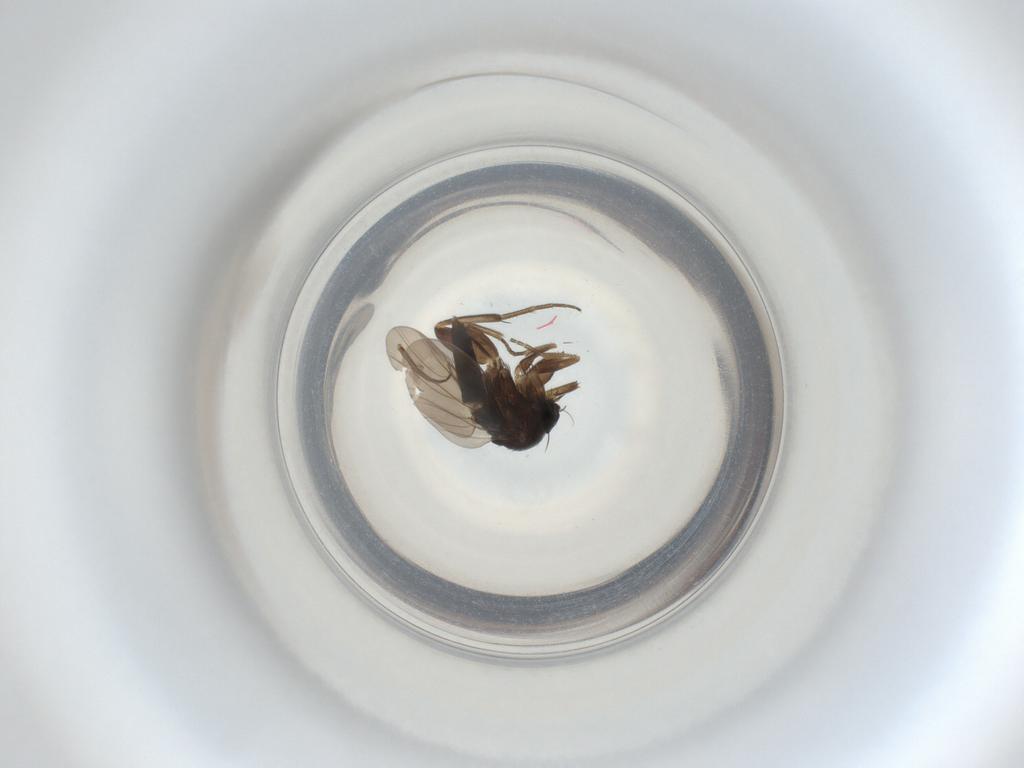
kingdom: Animalia
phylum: Arthropoda
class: Insecta
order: Diptera
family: Phoridae
